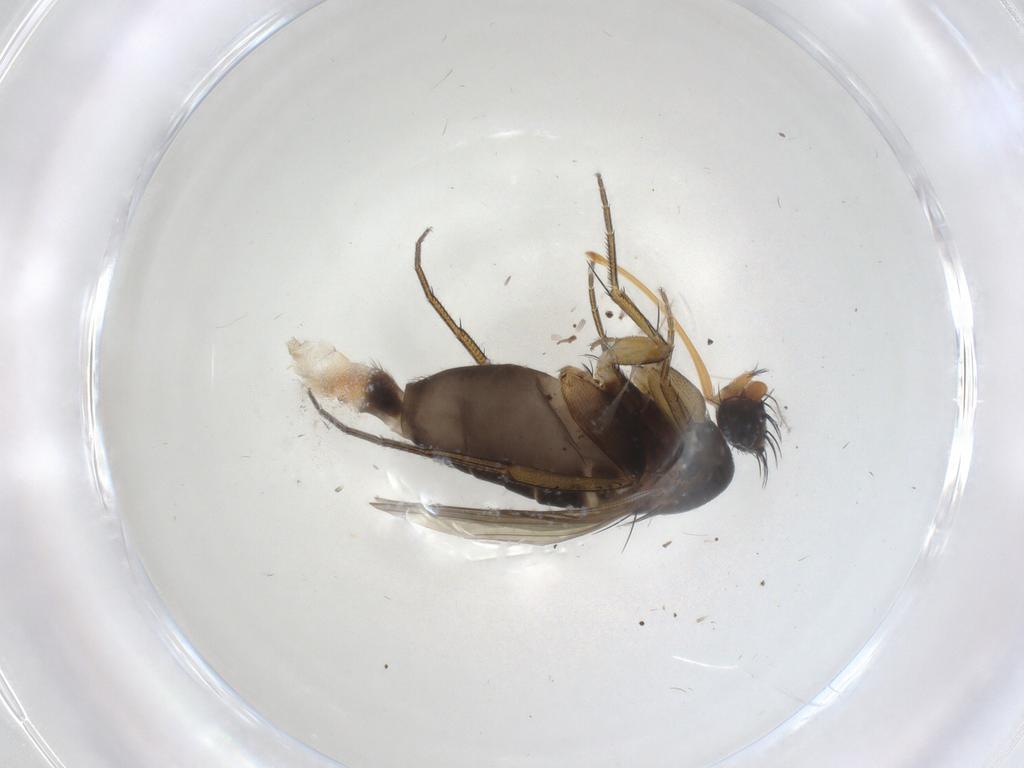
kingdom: Animalia
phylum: Arthropoda
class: Insecta
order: Diptera
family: Phoridae
